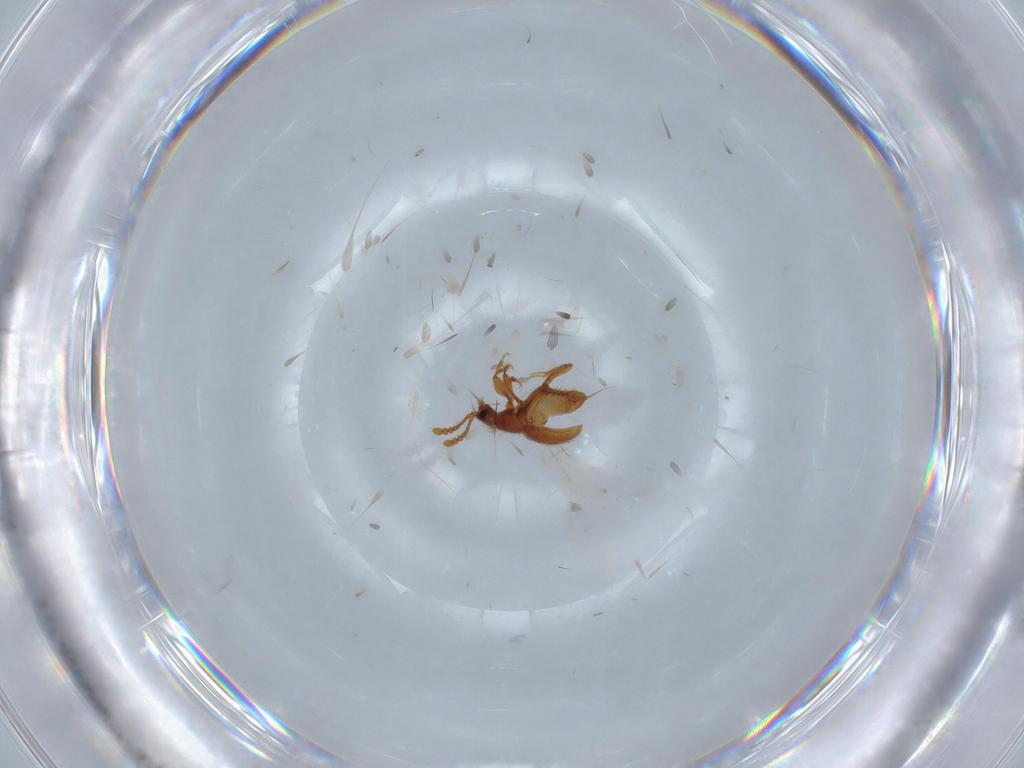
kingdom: Animalia
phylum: Arthropoda
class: Insecta
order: Coleoptera
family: Staphylinidae
